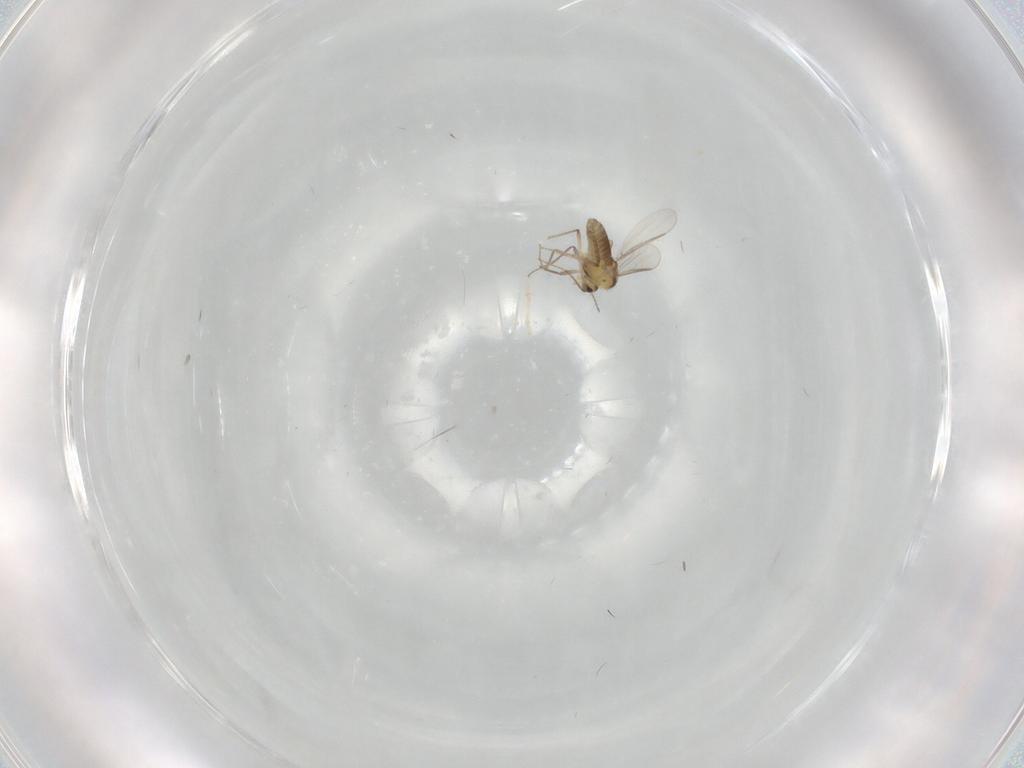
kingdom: Animalia
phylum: Arthropoda
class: Insecta
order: Diptera
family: Chironomidae
